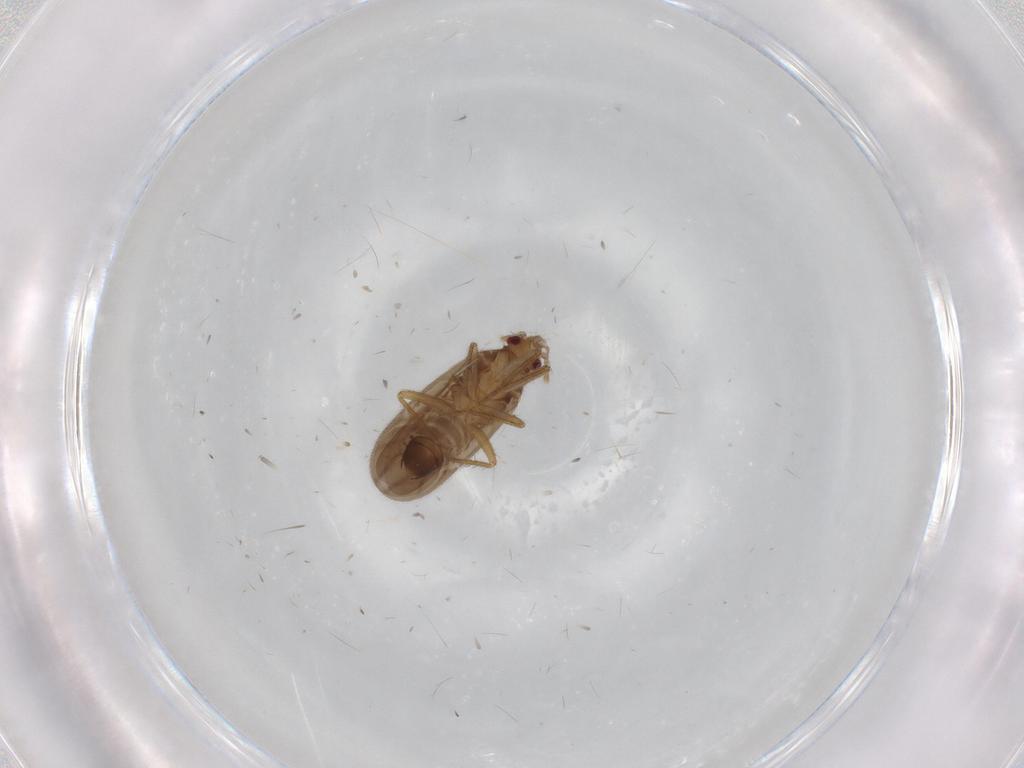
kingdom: Animalia
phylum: Arthropoda
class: Insecta
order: Hemiptera
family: Ceratocombidae
